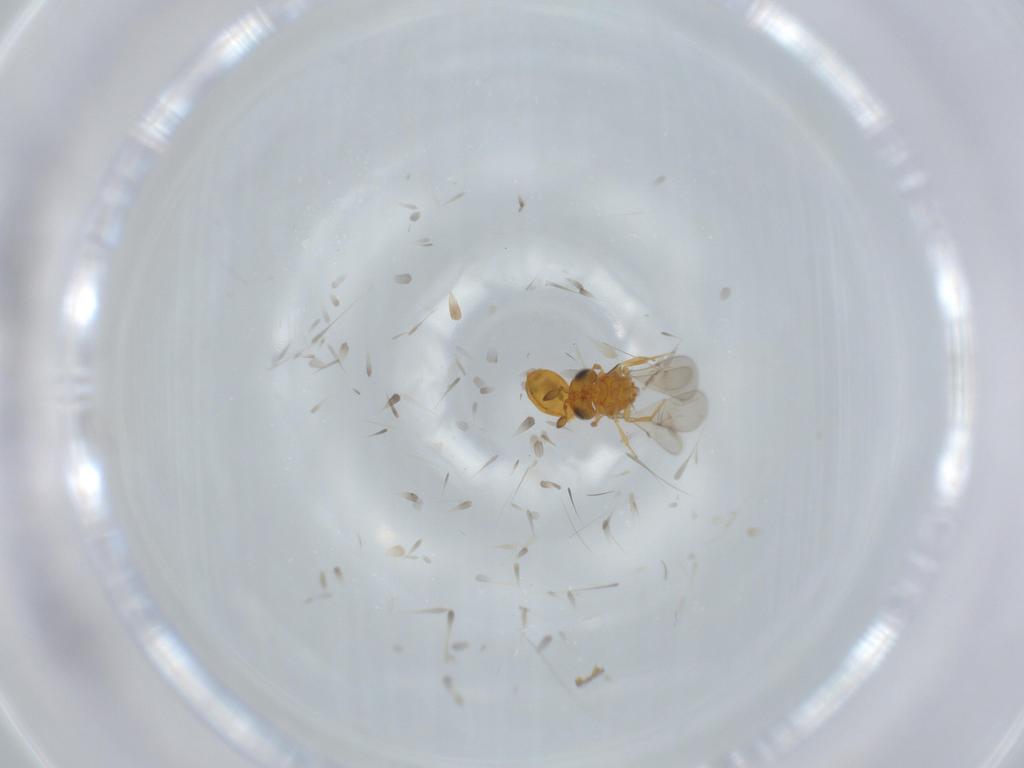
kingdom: Animalia
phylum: Arthropoda
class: Insecta
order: Hymenoptera
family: Scelionidae
